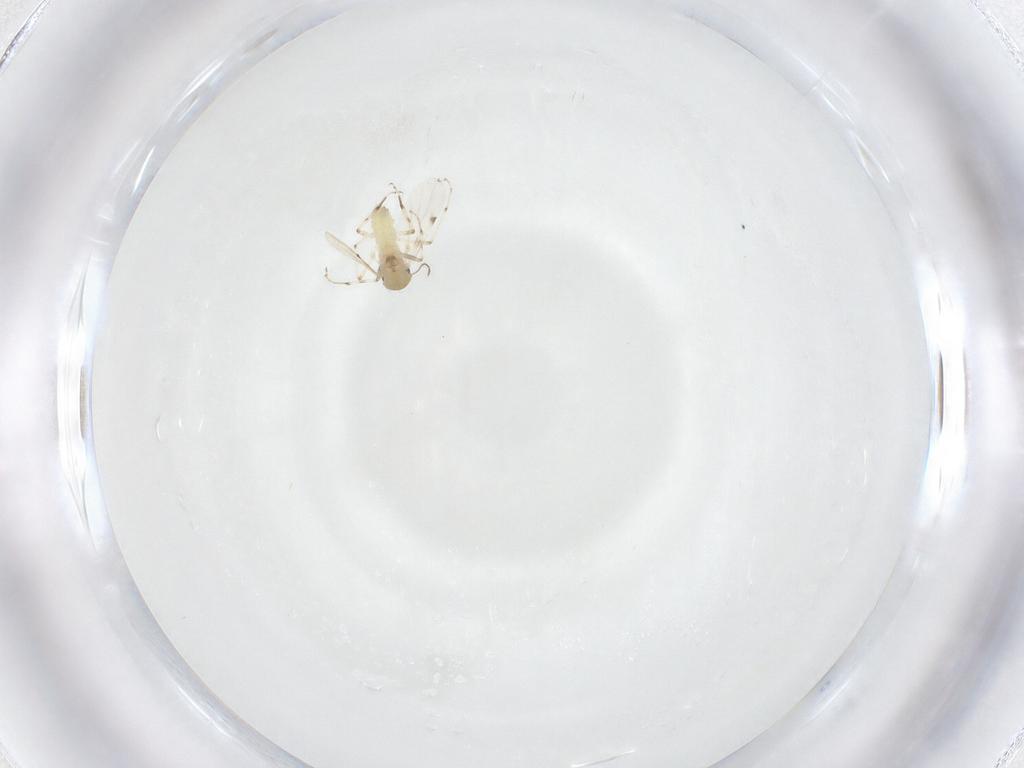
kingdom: Animalia
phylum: Arthropoda
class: Insecta
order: Diptera
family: Ceratopogonidae
